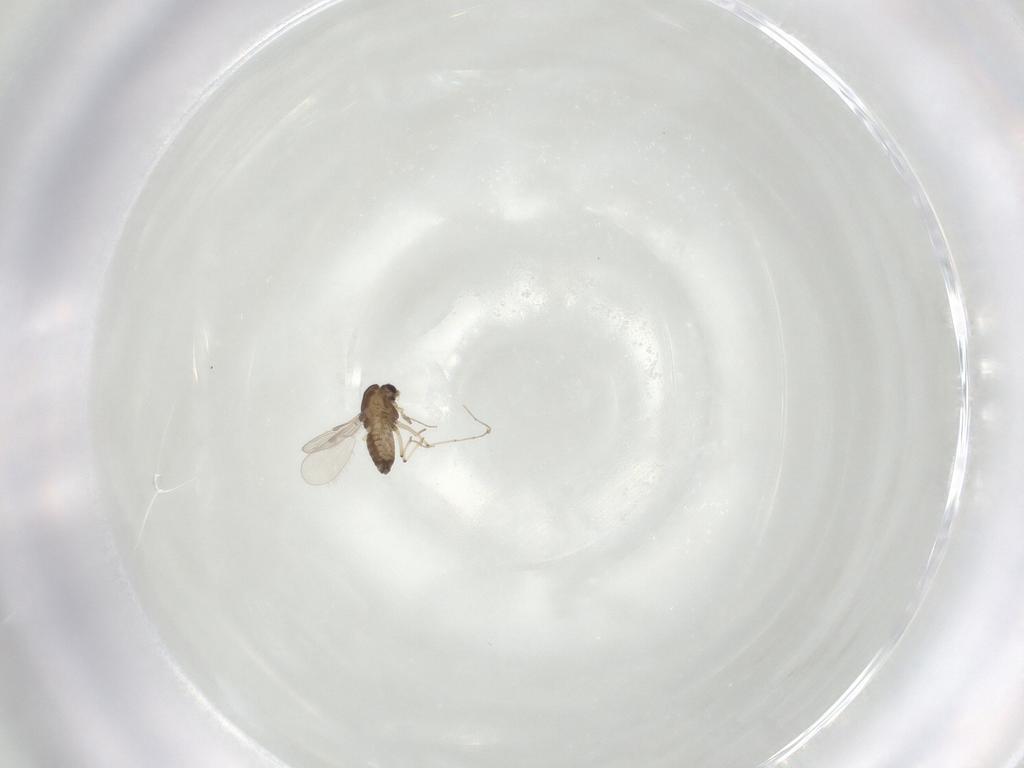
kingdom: Animalia
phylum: Arthropoda
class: Insecta
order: Diptera
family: Chironomidae
